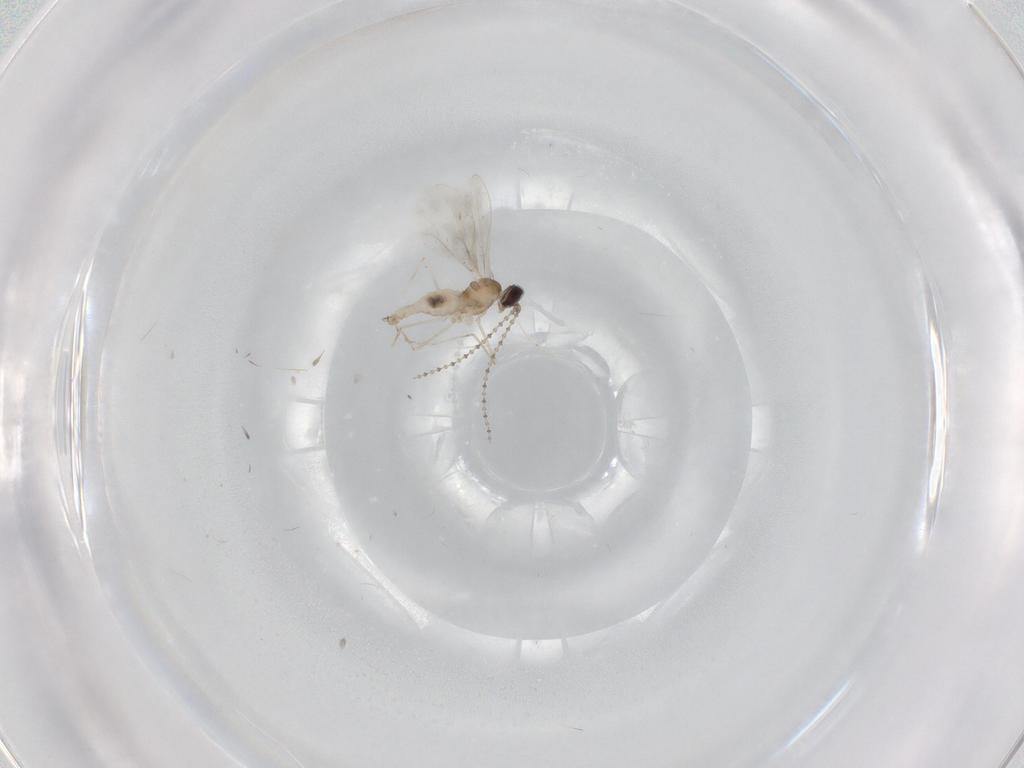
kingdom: Animalia
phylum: Arthropoda
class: Insecta
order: Diptera
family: Cecidomyiidae
